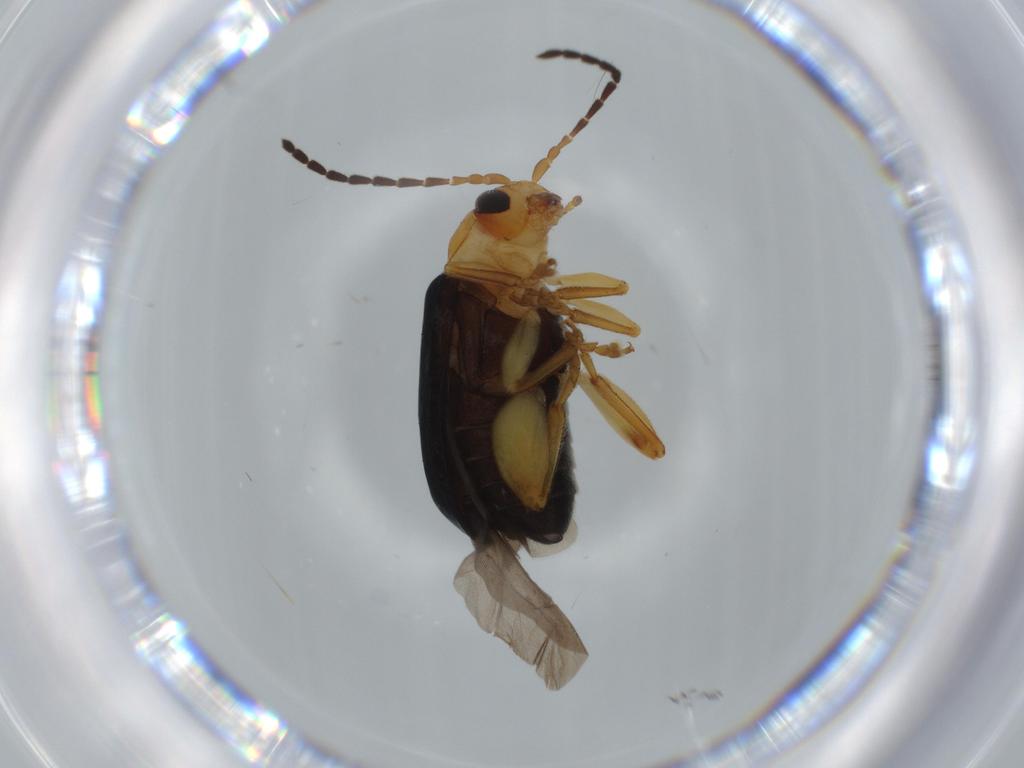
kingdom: Animalia
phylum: Arthropoda
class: Insecta
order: Coleoptera
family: Chrysomelidae
